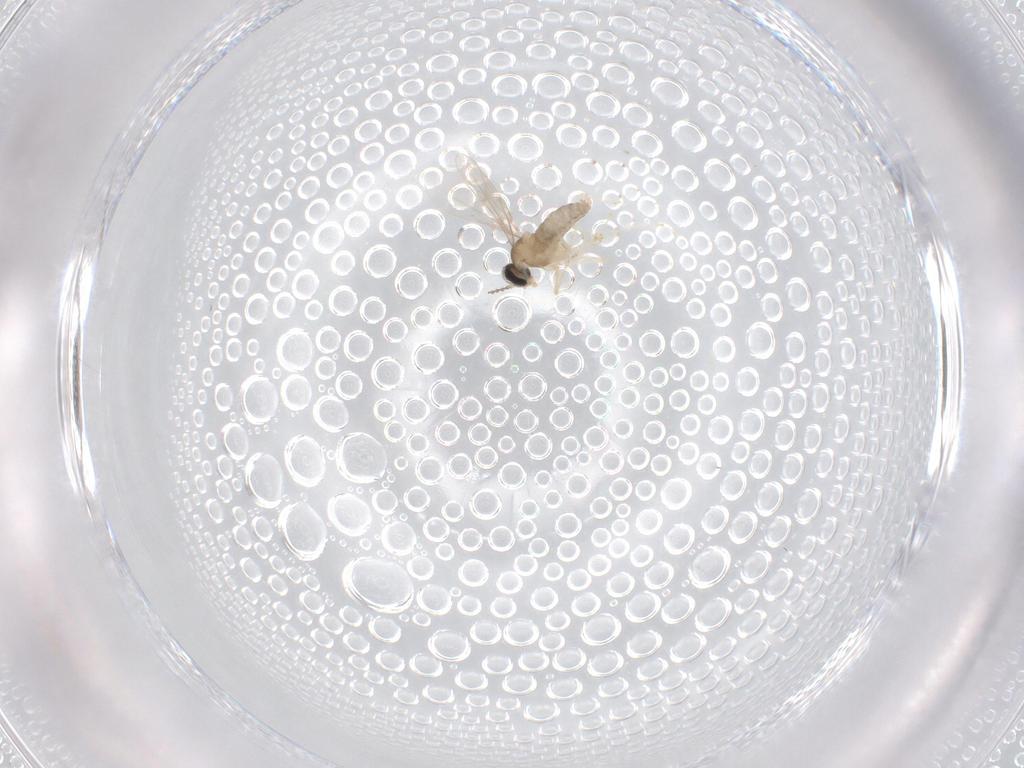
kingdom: Animalia
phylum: Arthropoda
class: Insecta
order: Diptera
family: Cecidomyiidae
